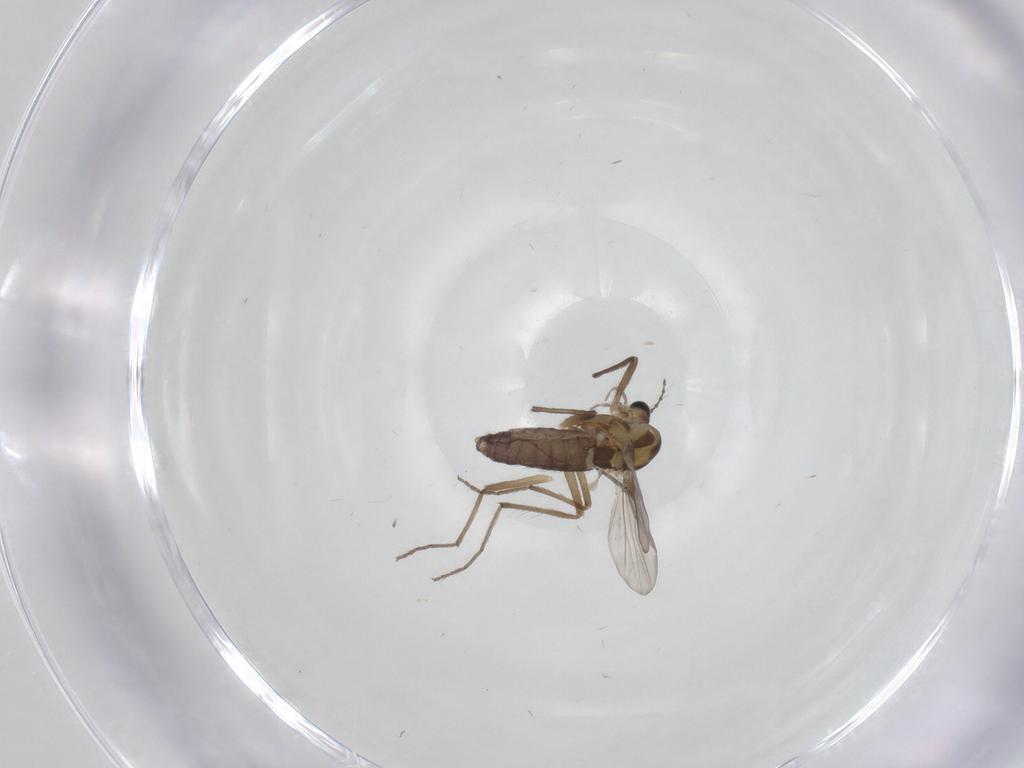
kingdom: Animalia
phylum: Arthropoda
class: Insecta
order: Diptera
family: Chironomidae
